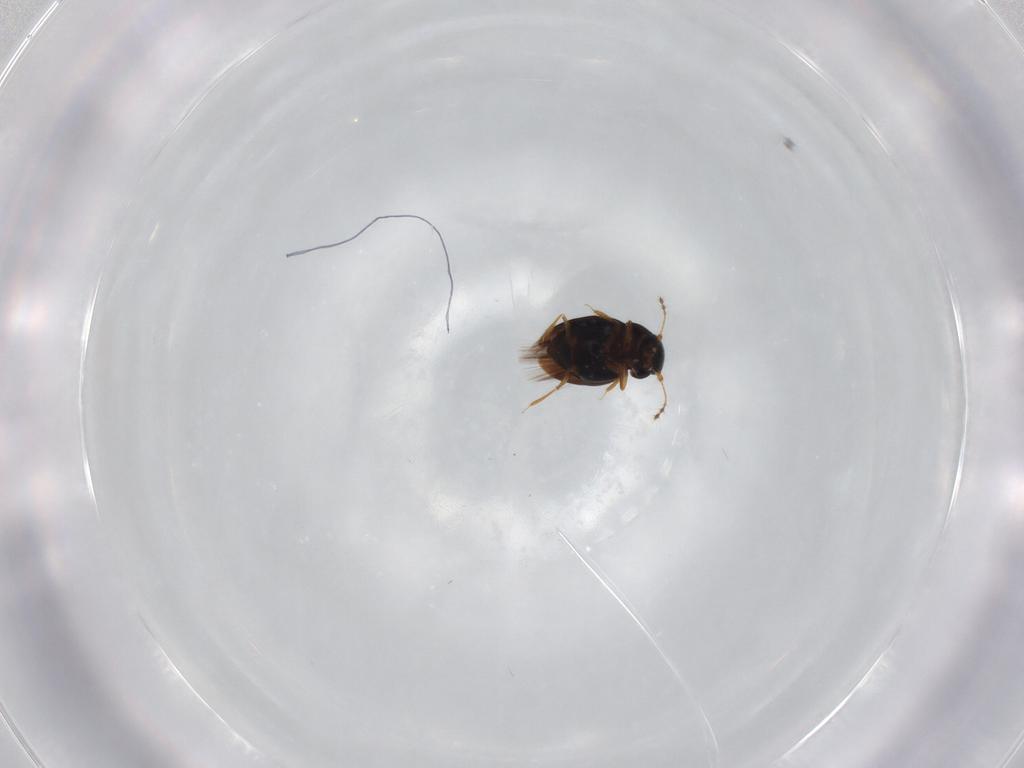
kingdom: Animalia
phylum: Arthropoda
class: Insecta
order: Coleoptera
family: Ptiliidae
